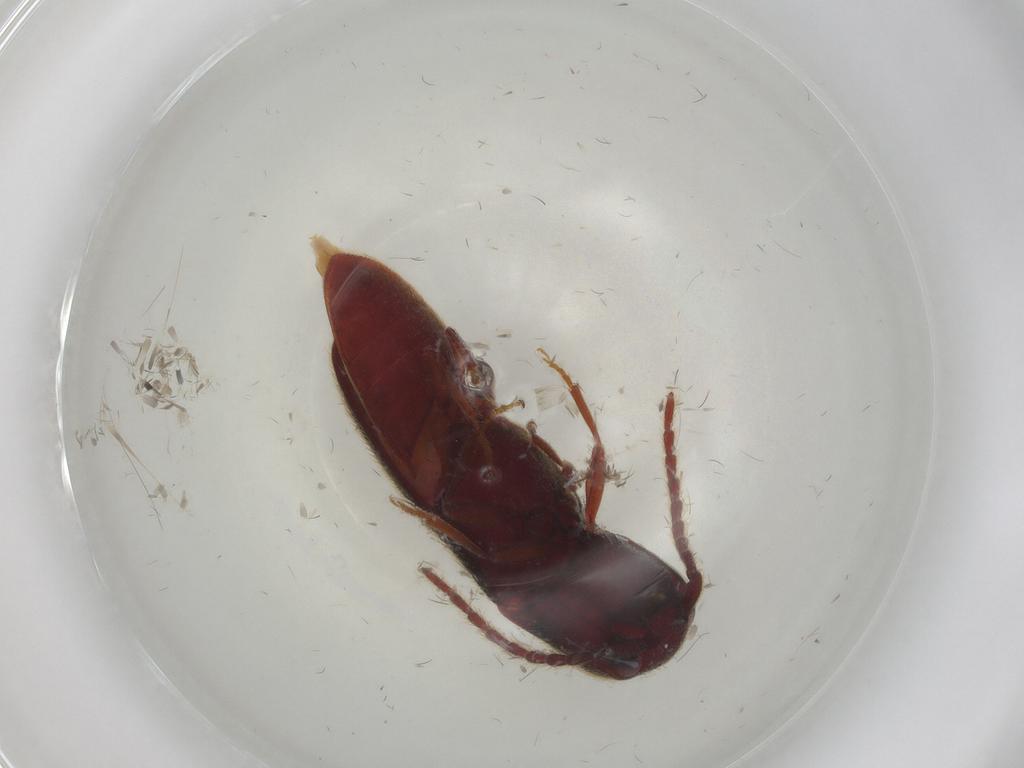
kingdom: Animalia
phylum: Arthropoda
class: Insecta
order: Coleoptera
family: Eucnemidae
